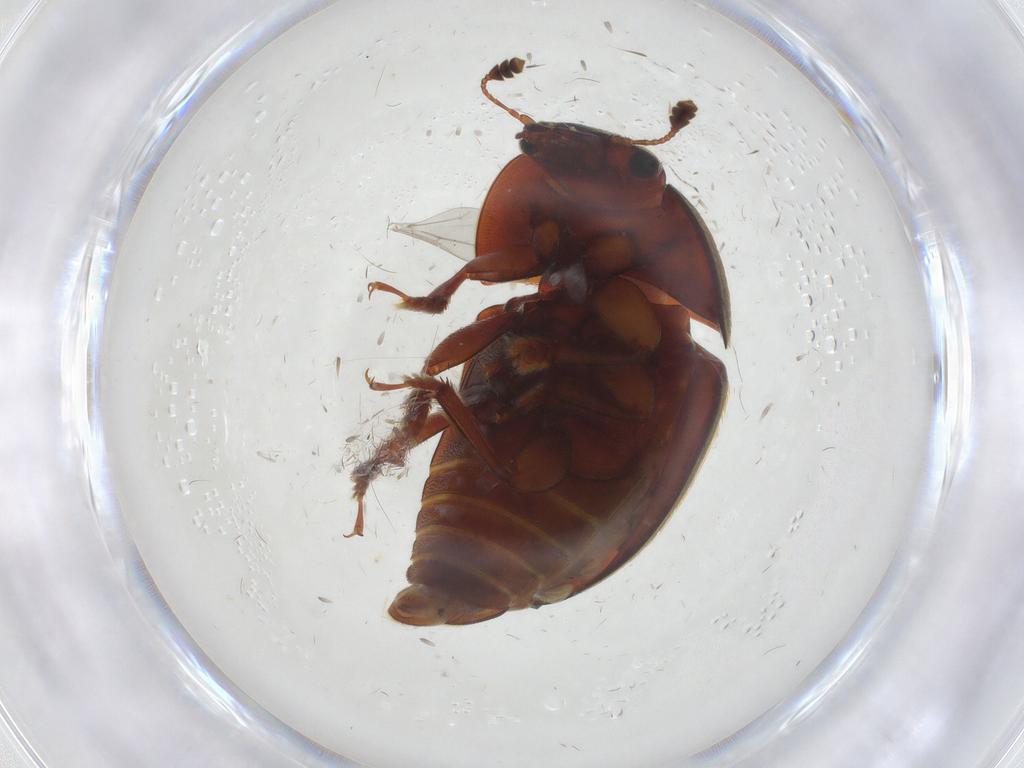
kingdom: Animalia
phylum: Arthropoda
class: Insecta
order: Coleoptera
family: Nitidulidae
